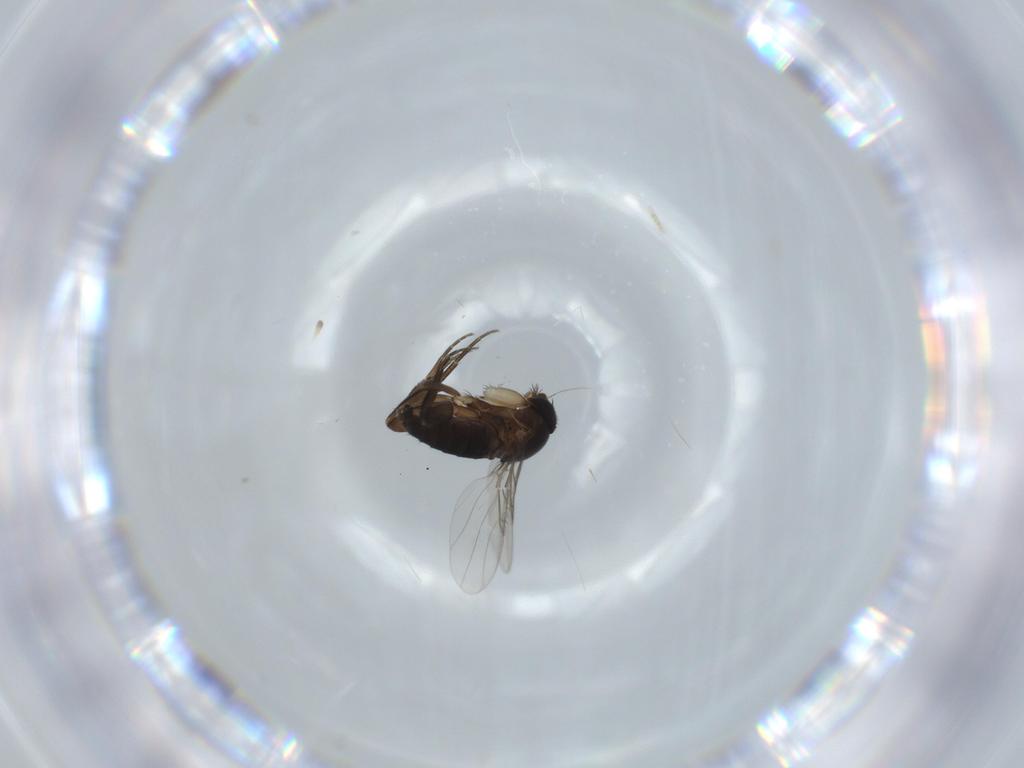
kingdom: Animalia
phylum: Arthropoda
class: Insecta
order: Diptera
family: Phoridae
